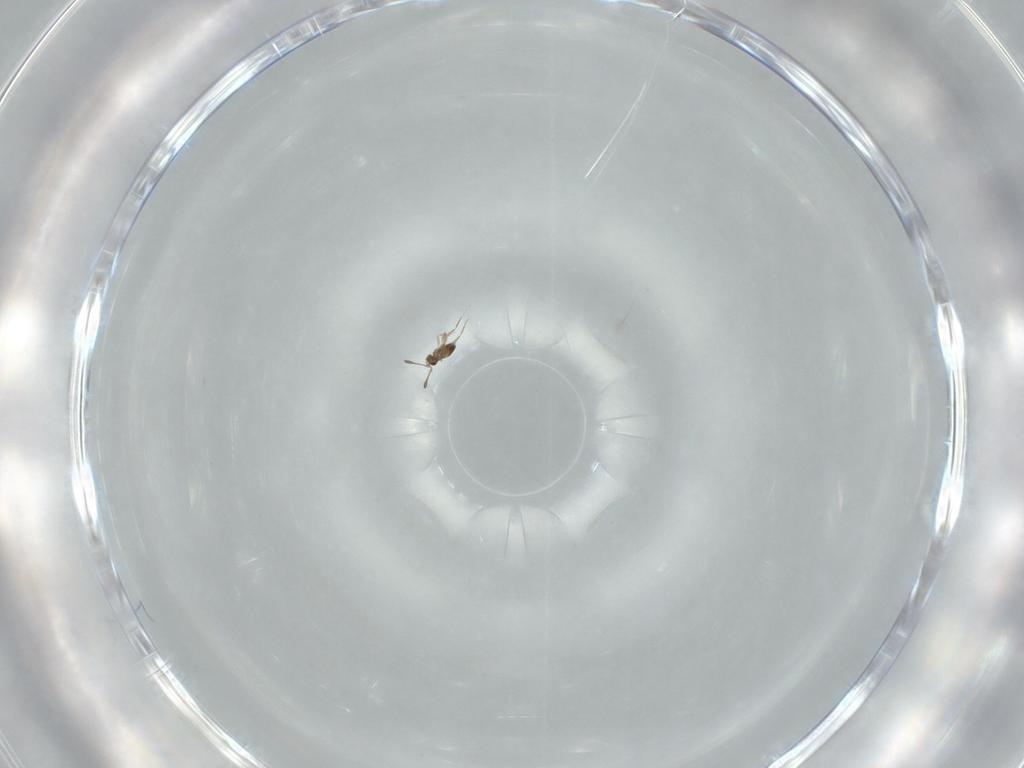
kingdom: Animalia
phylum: Arthropoda
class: Insecta
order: Hymenoptera
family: Mymaridae
